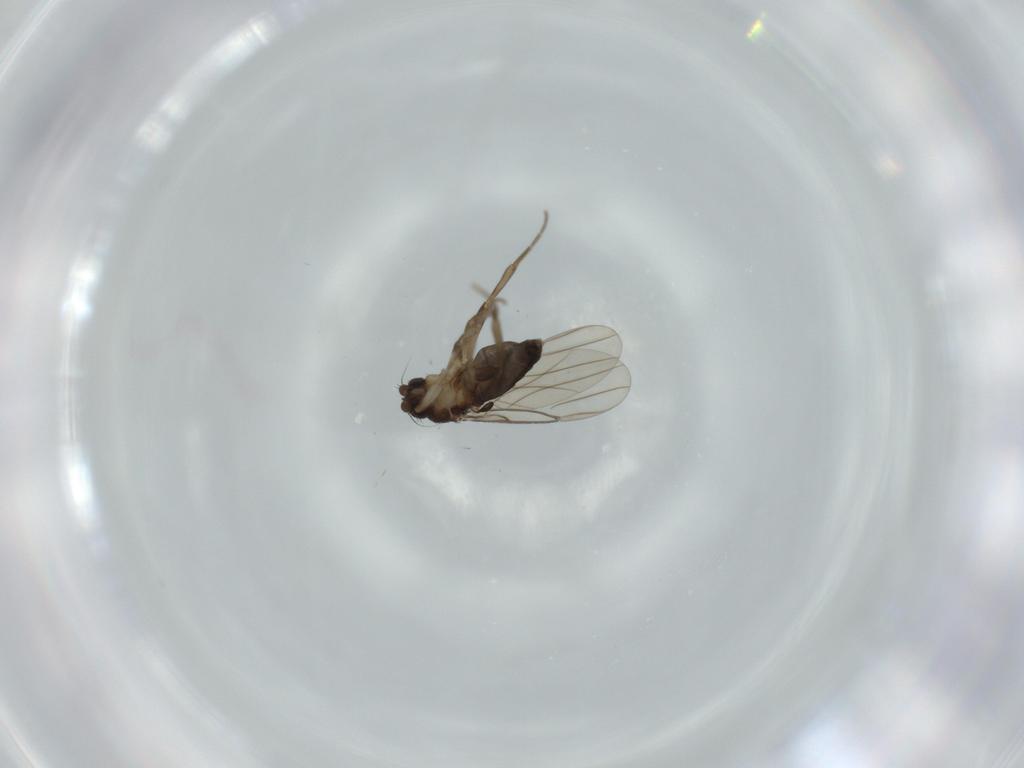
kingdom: Animalia
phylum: Arthropoda
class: Insecta
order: Diptera
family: Phoridae
